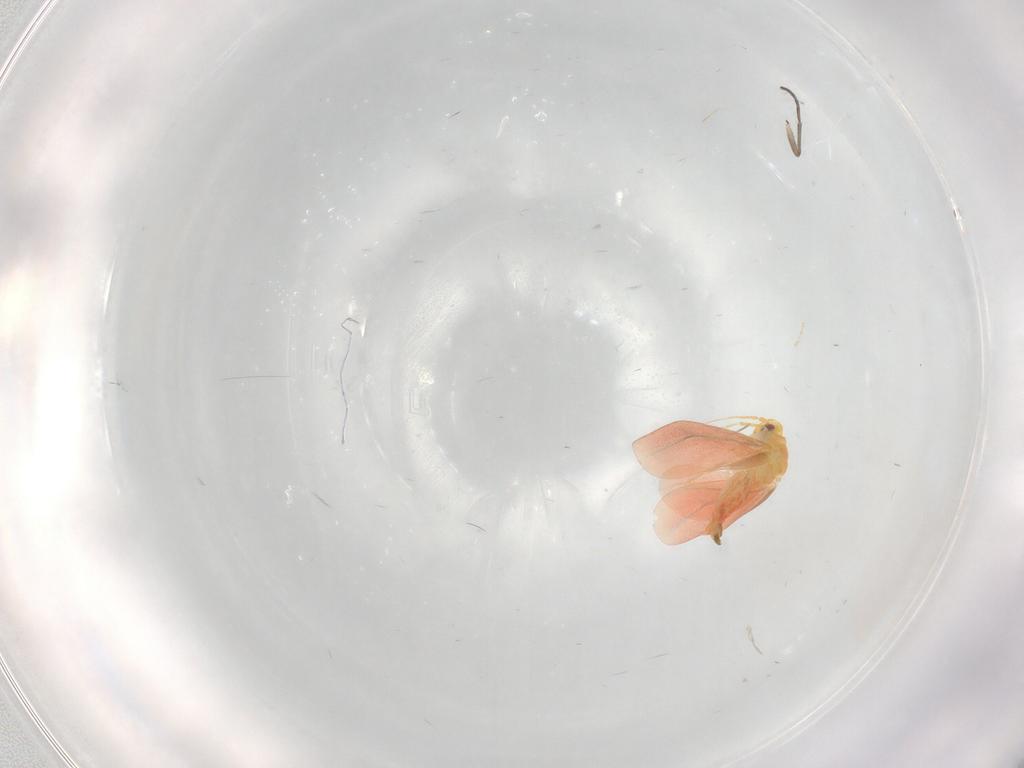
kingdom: Animalia
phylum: Arthropoda
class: Insecta
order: Hemiptera
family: Aleyrodidae
